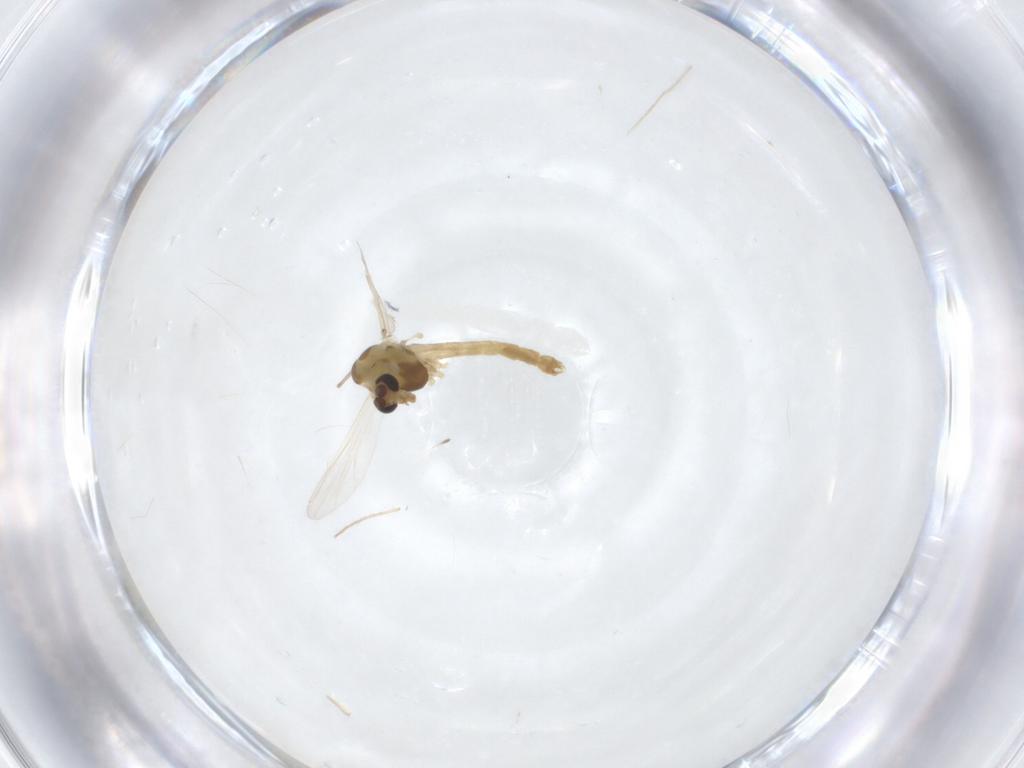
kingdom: Animalia
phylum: Arthropoda
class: Insecta
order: Diptera
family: Chironomidae
